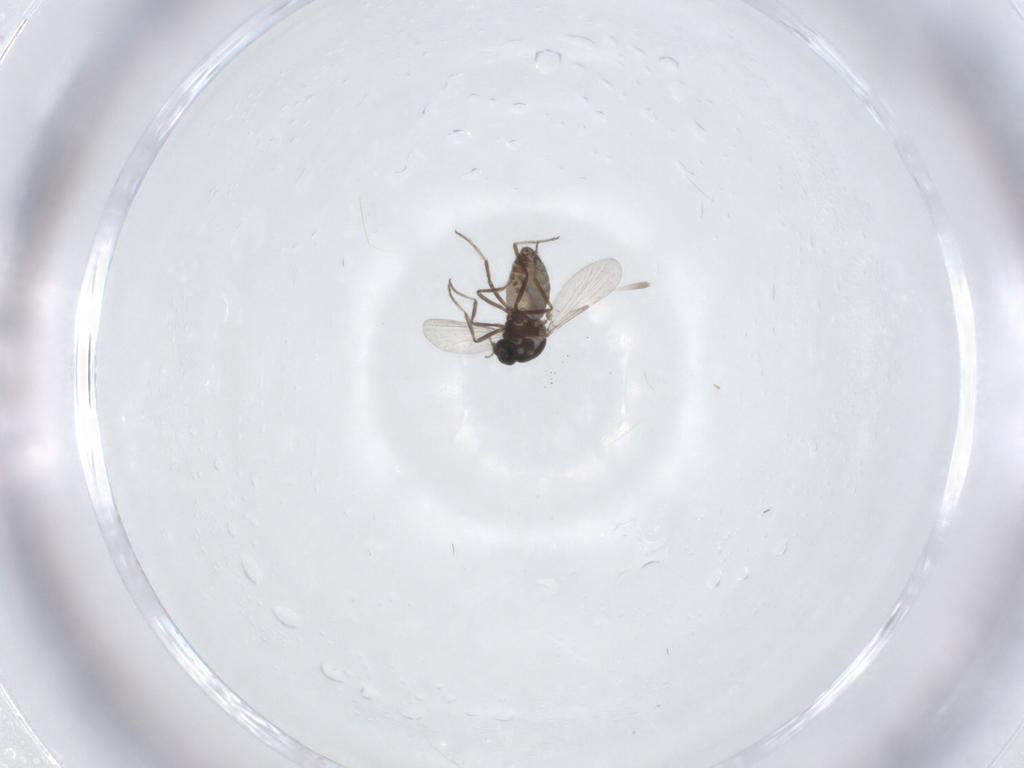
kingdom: Animalia
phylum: Arthropoda
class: Insecta
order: Diptera
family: Ceratopogonidae
